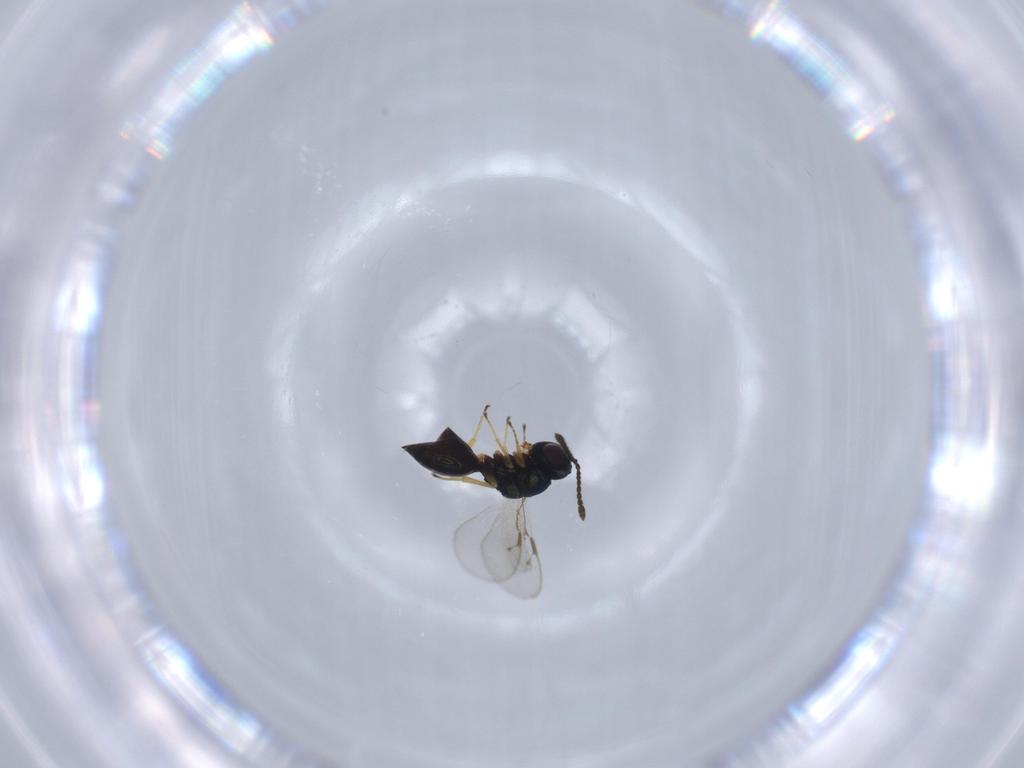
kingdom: Animalia
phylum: Arthropoda
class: Insecta
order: Hymenoptera
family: Pteromalidae
